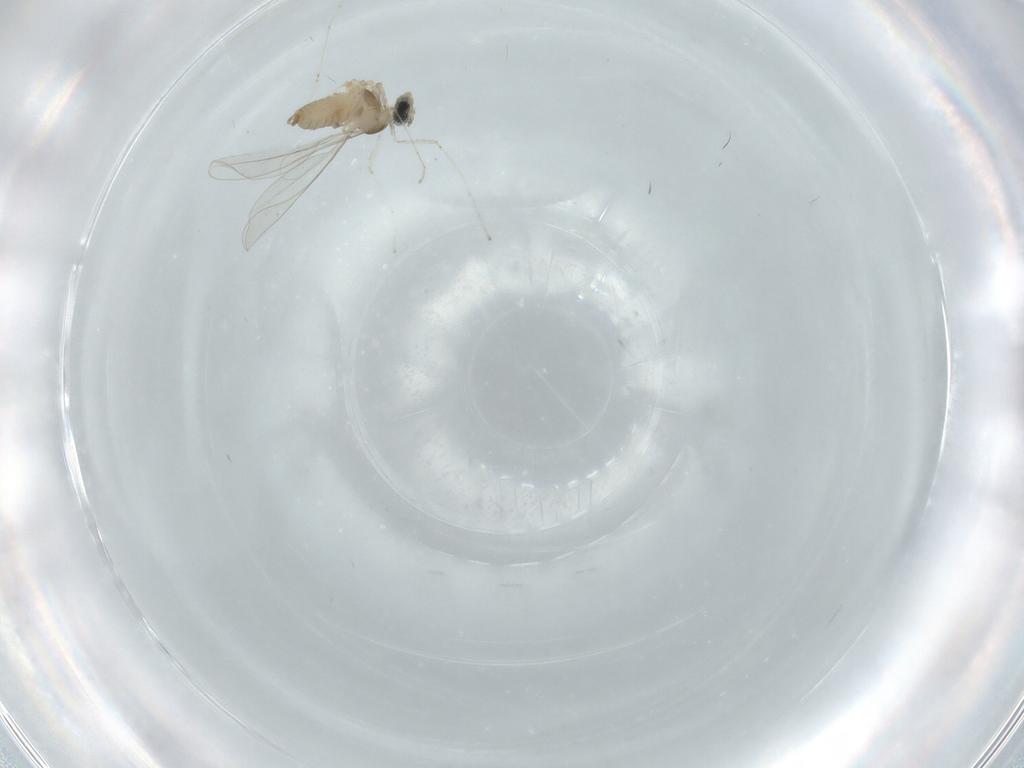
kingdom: Animalia
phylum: Arthropoda
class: Insecta
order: Diptera
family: Cecidomyiidae
